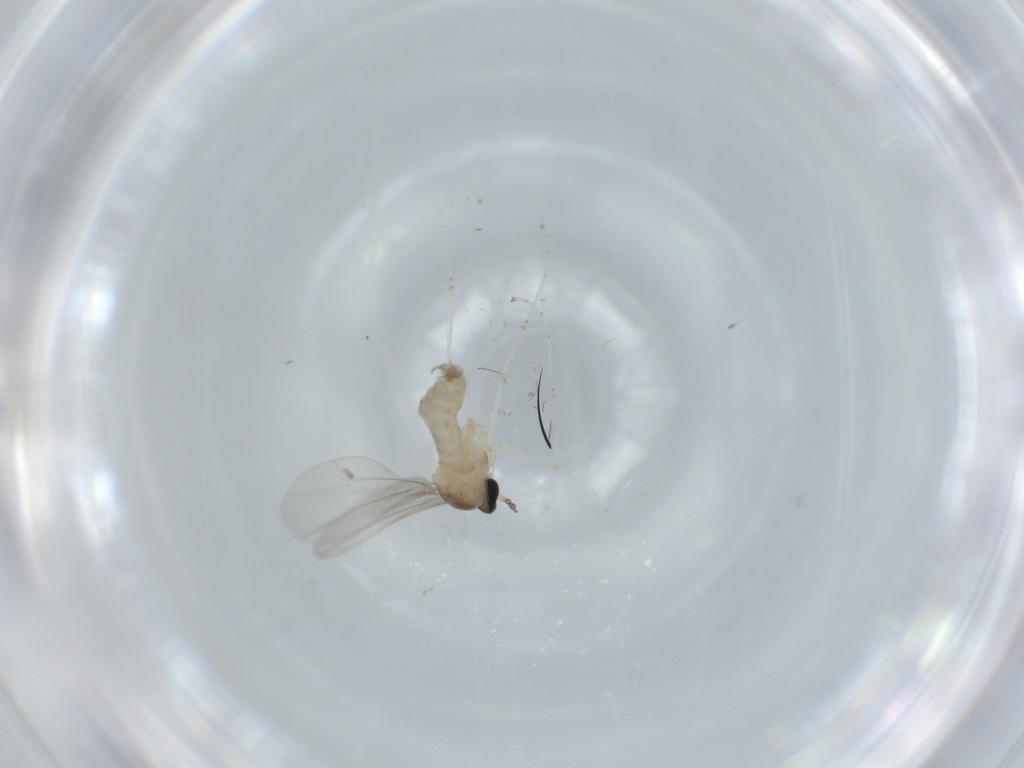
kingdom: Animalia
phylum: Arthropoda
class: Insecta
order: Diptera
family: Cecidomyiidae
